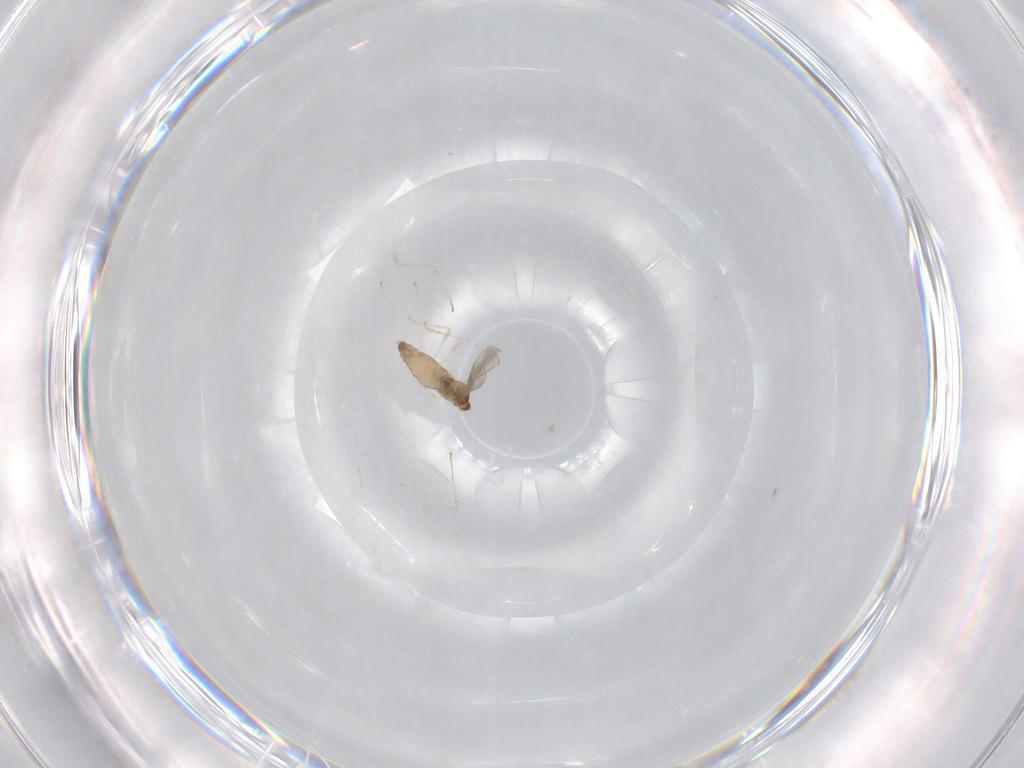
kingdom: Animalia
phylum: Arthropoda
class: Insecta
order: Diptera
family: Cecidomyiidae
